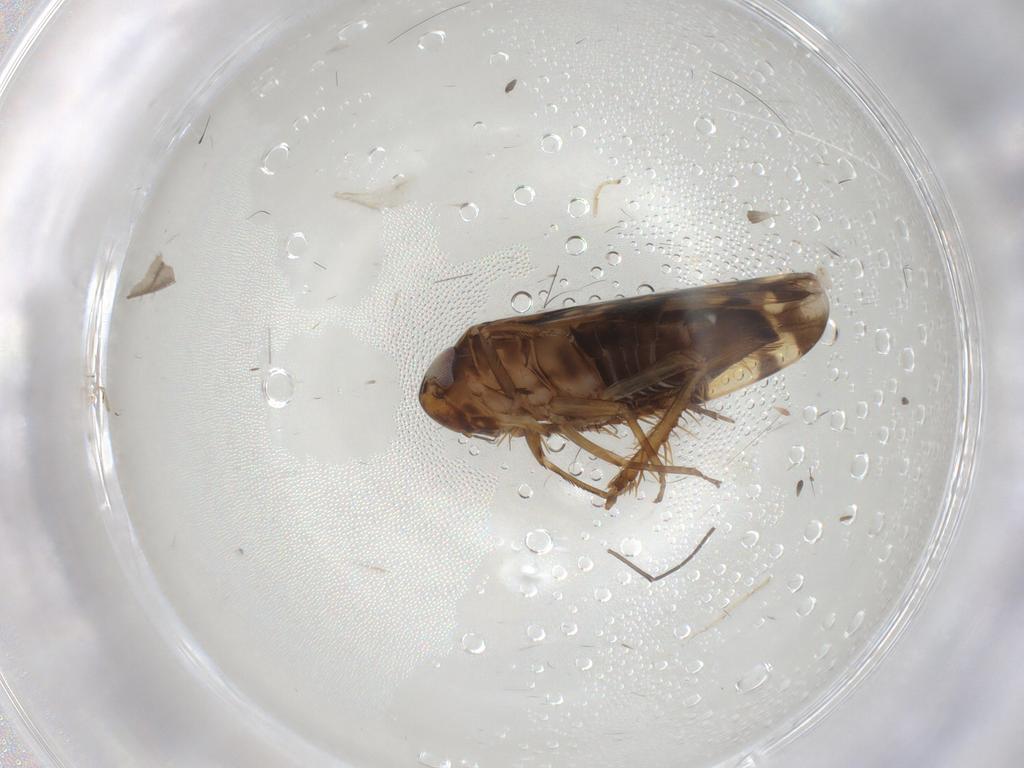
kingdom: Animalia
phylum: Arthropoda
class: Insecta
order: Hemiptera
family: Cicadellidae
